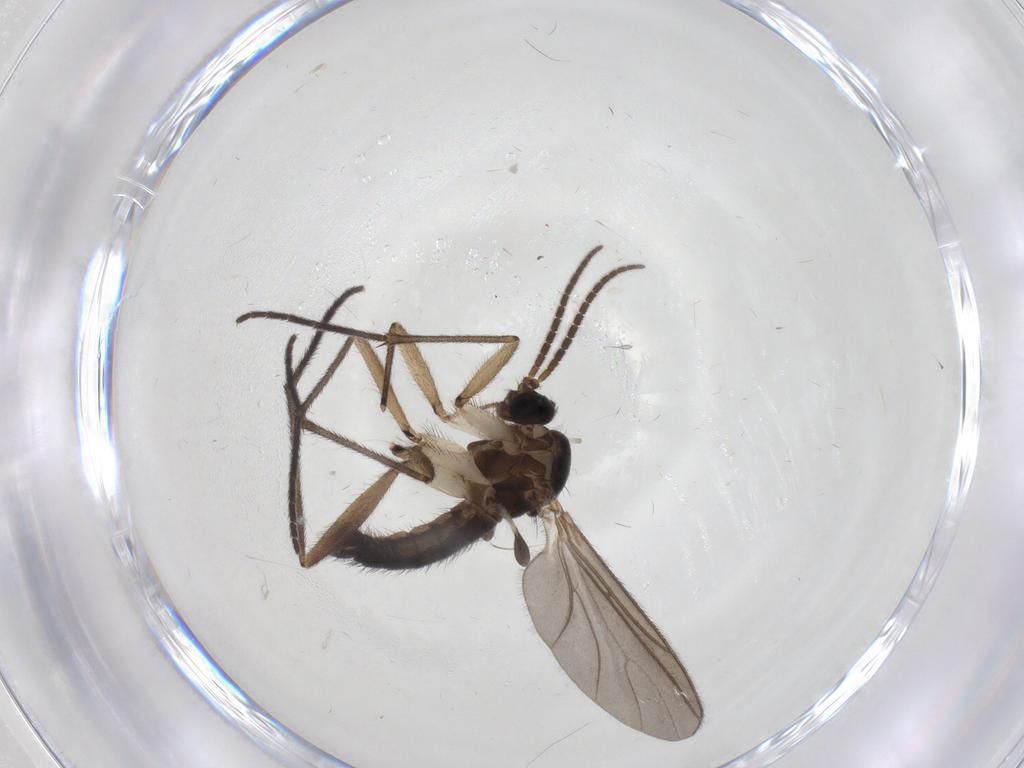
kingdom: Animalia
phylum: Arthropoda
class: Insecta
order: Diptera
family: Sciaridae
